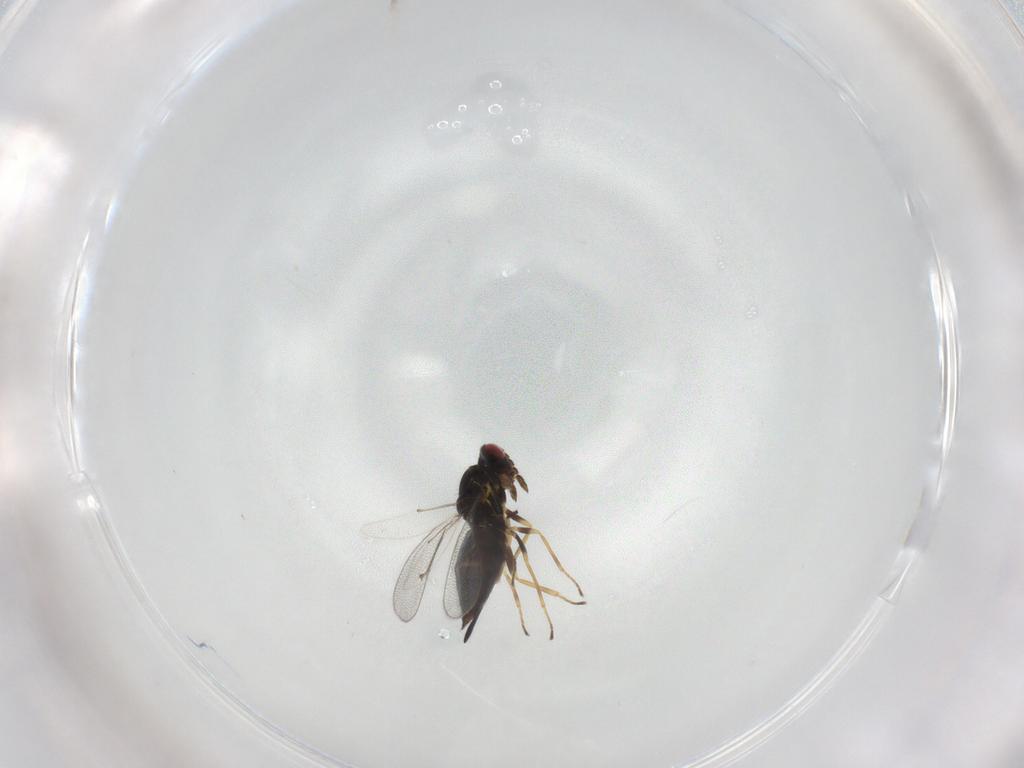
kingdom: Animalia
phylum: Arthropoda
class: Insecta
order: Hymenoptera
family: Eulophidae
